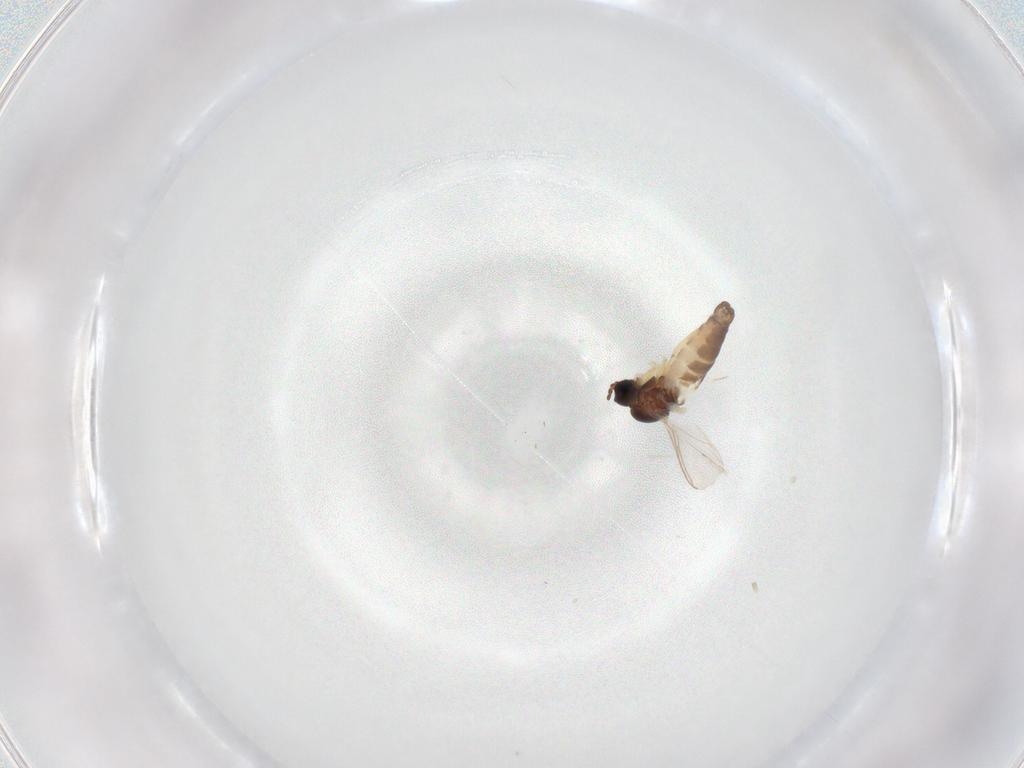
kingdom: Animalia
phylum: Arthropoda
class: Insecta
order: Diptera
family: Sciaridae
